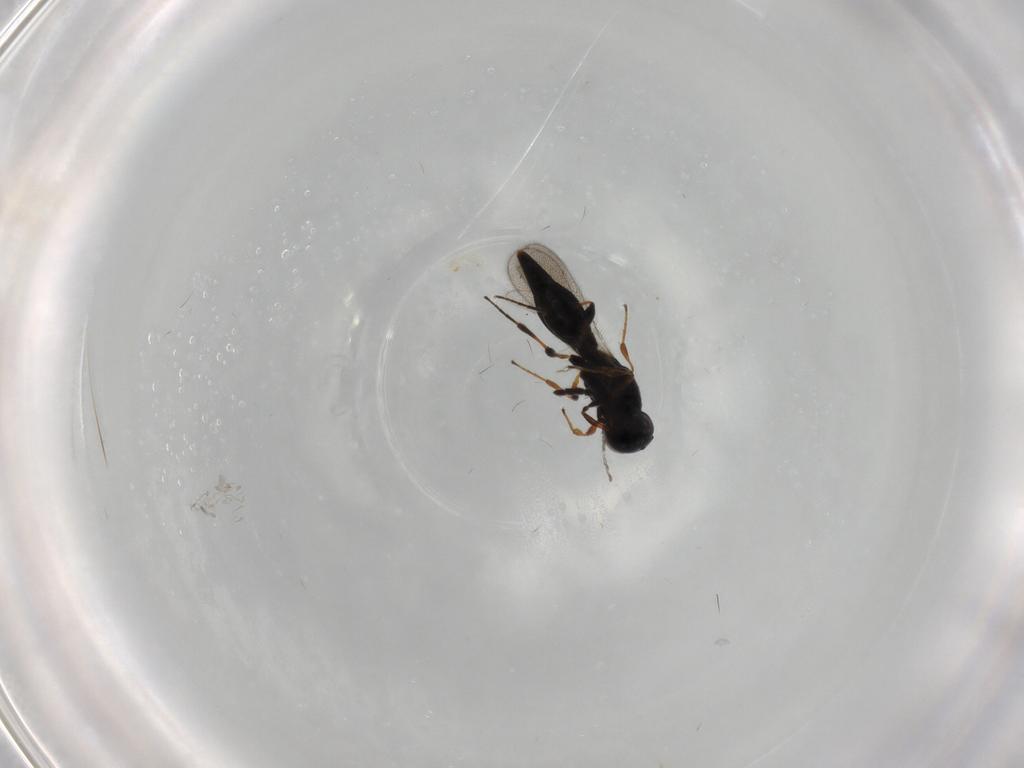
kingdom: Animalia
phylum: Arthropoda
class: Insecta
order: Hymenoptera
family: Platygastridae
